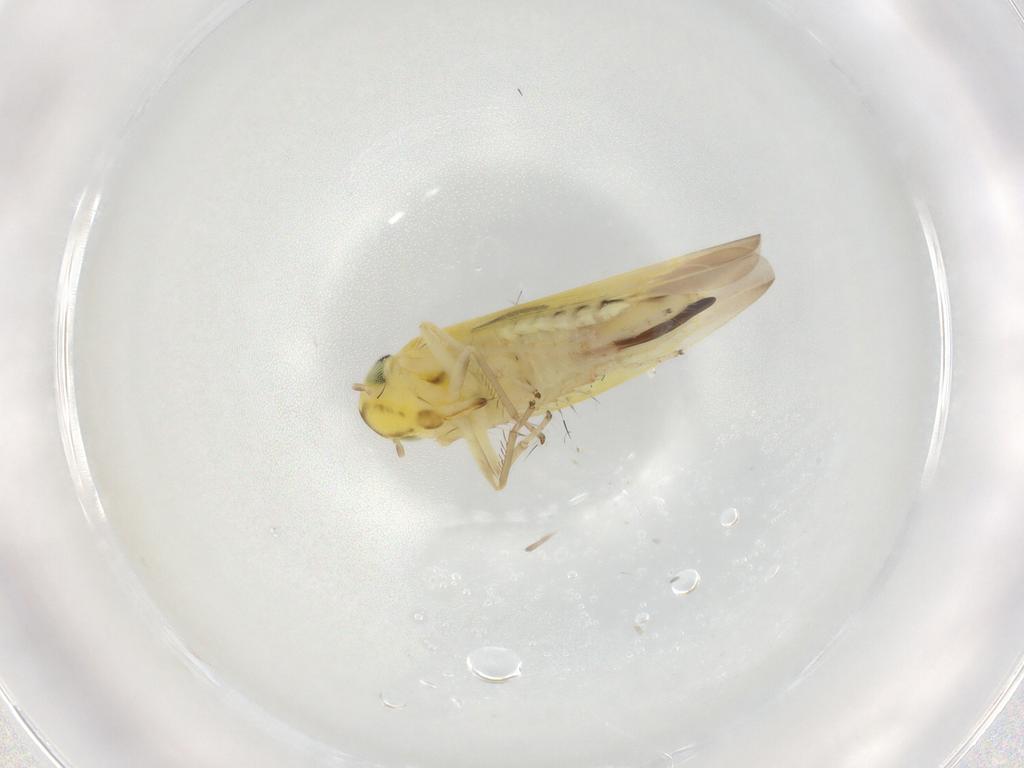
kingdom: Animalia
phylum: Arthropoda
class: Insecta
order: Hemiptera
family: Cicadellidae
